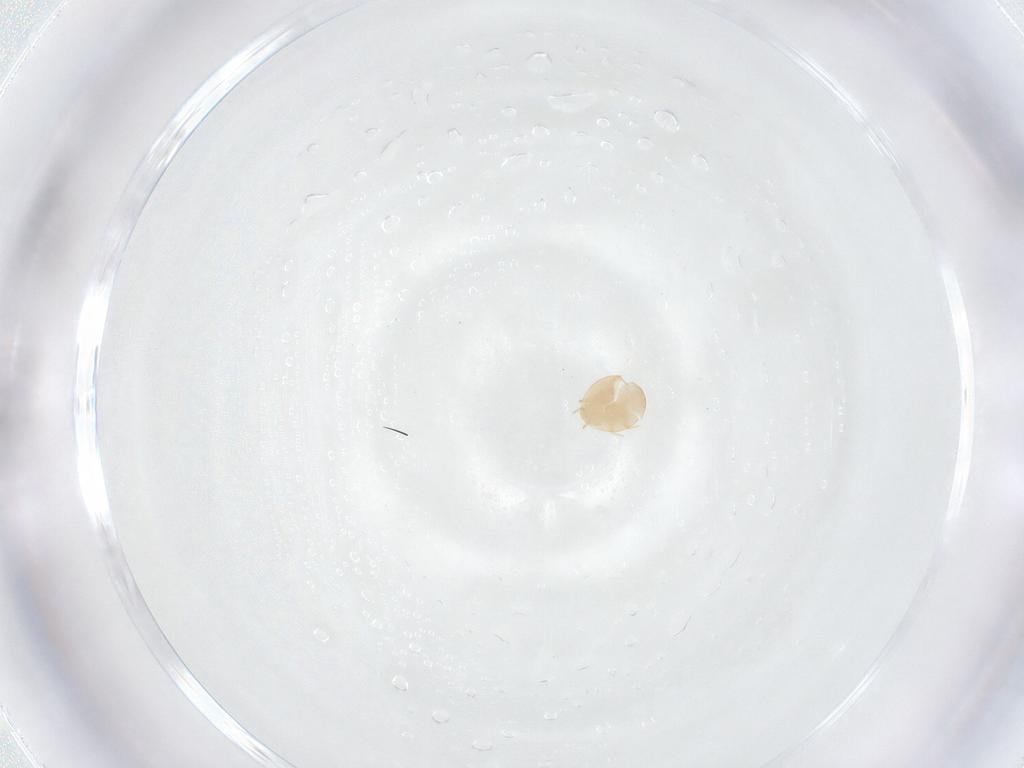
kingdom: Animalia
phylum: Arthropoda
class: Arachnida
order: Mesostigmata
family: Trematuridae
